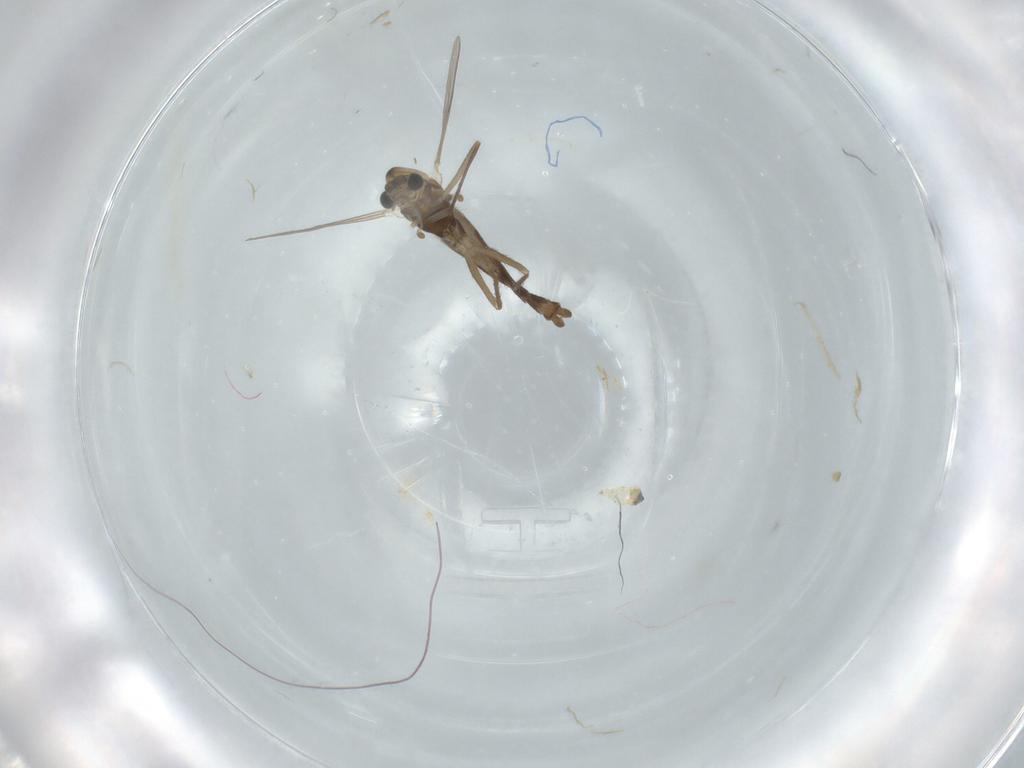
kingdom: Animalia
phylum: Arthropoda
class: Insecta
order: Diptera
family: Chironomidae
